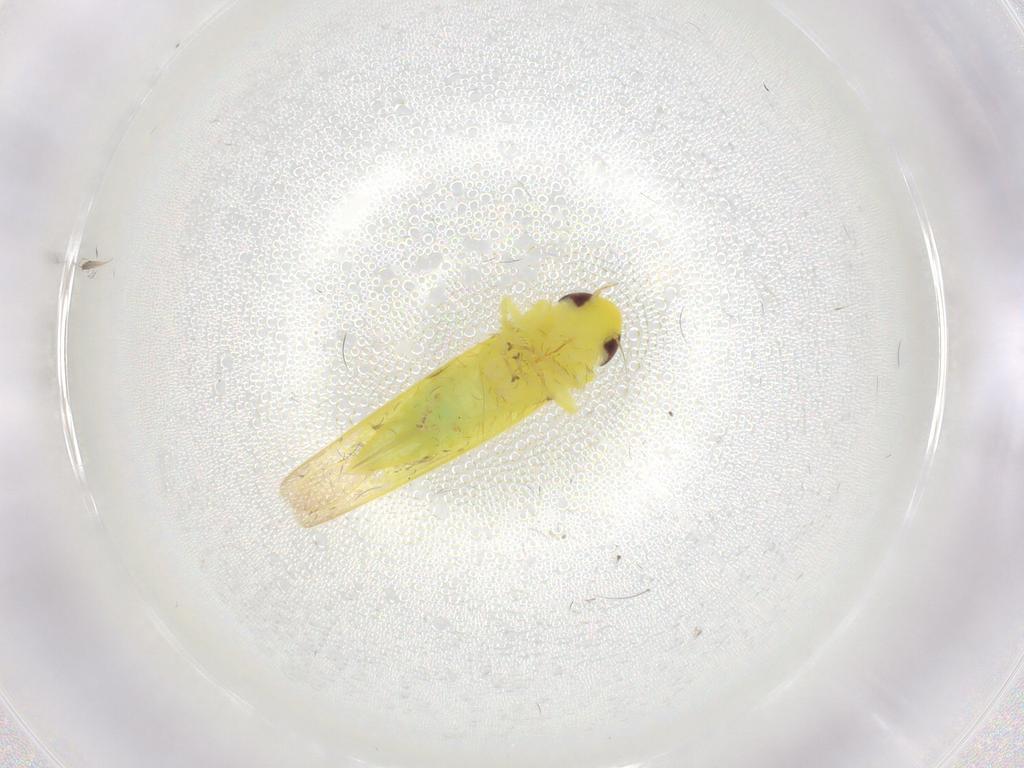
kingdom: Animalia
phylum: Arthropoda
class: Insecta
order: Hemiptera
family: Cicadellidae
